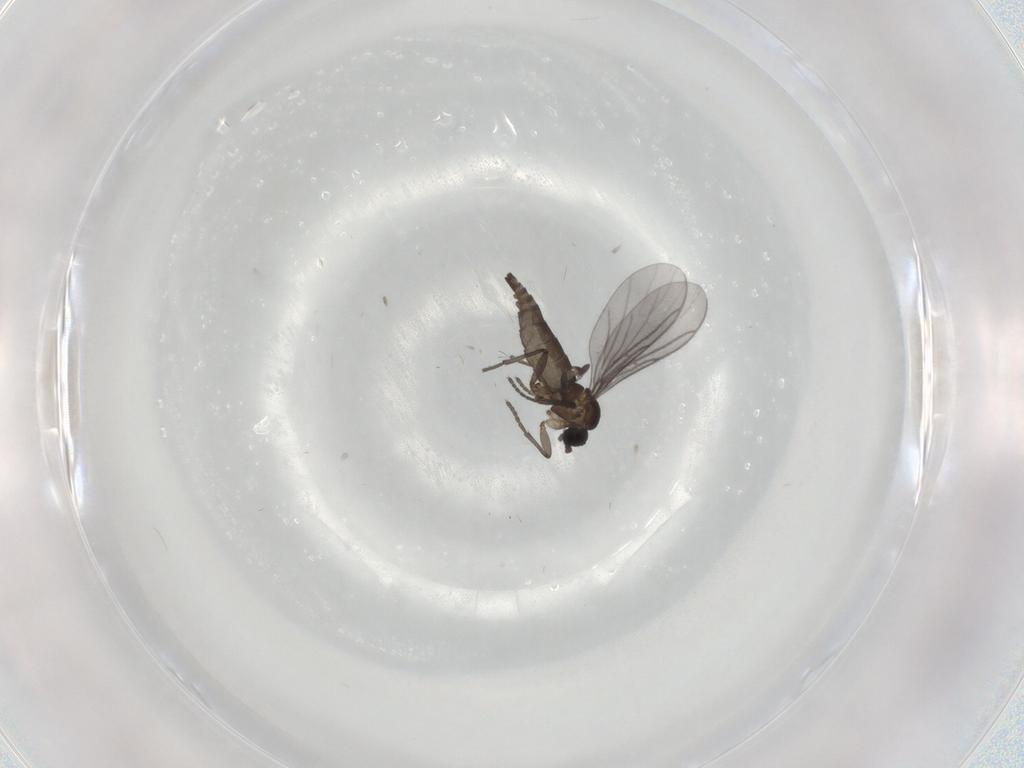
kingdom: Animalia
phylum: Arthropoda
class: Insecta
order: Diptera
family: Sciaridae
